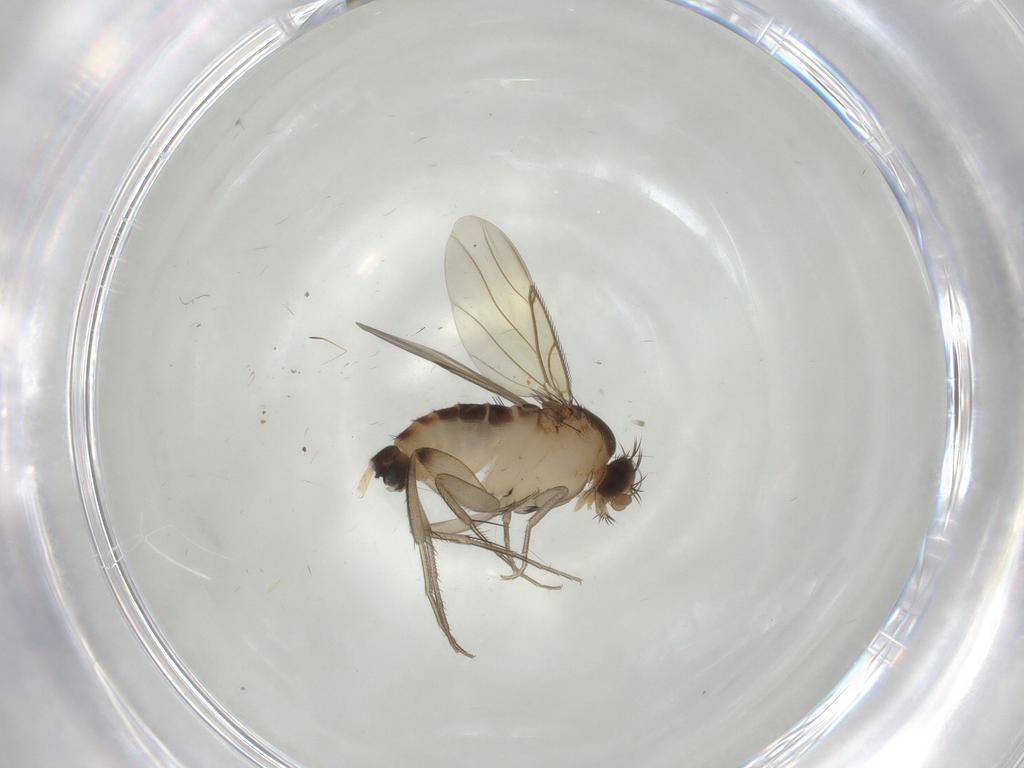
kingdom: Animalia
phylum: Arthropoda
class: Insecta
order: Diptera
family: Phoridae
